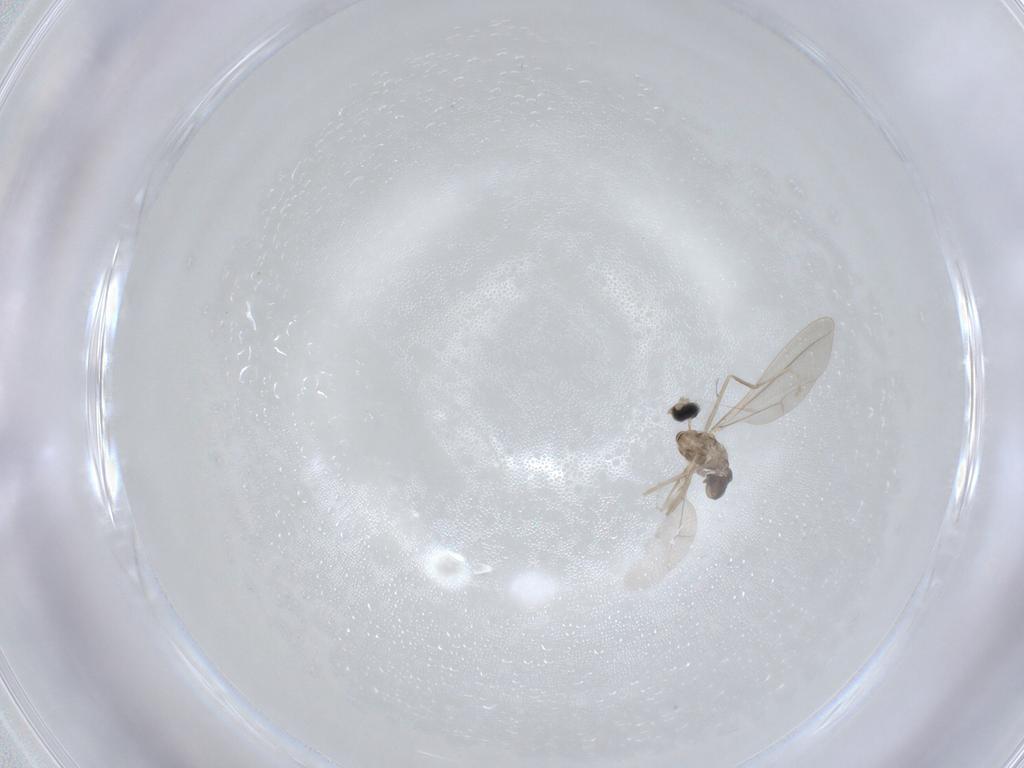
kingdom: Animalia
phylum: Arthropoda
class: Insecta
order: Diptera
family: Chironomidae
